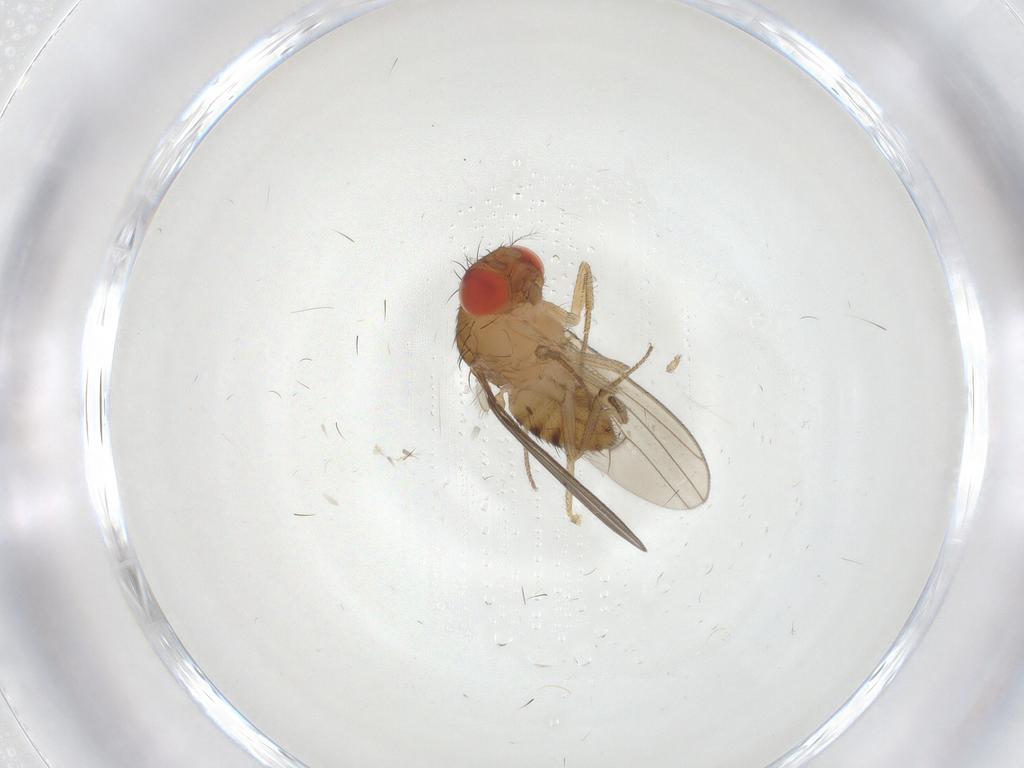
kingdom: Animalia
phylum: Arthropoda
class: Insecta
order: Diptera
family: Drosophilidae
